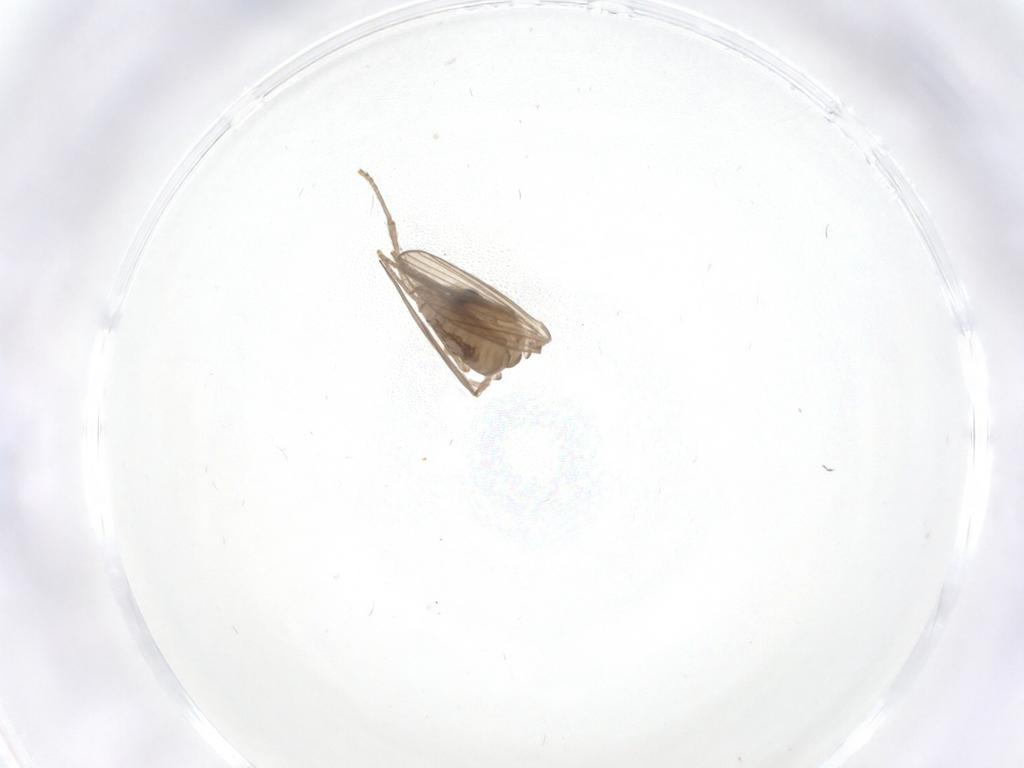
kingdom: Animalia
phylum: Arthropoda
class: Insecta
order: Diptera
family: Psychodidae
